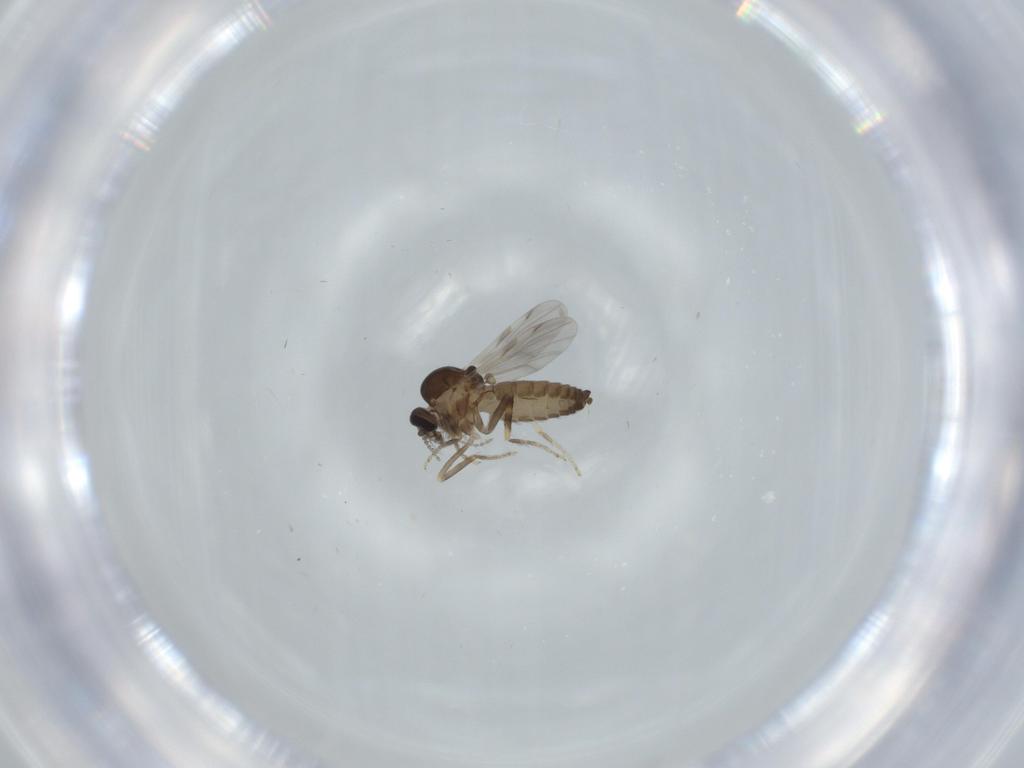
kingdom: Animalia
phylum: Arthropoda
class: Insecta
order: Diptera
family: Ceratopogonidae
